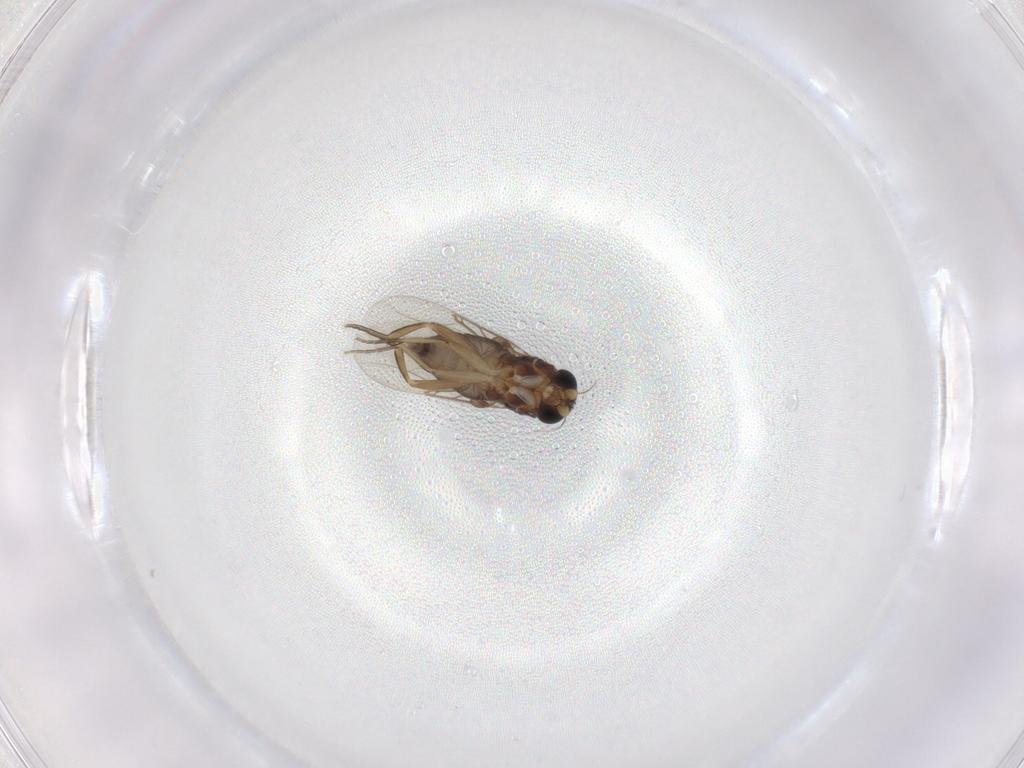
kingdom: Animalia
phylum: Arthropoda
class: Insecta
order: Diptera
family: Phoridae
